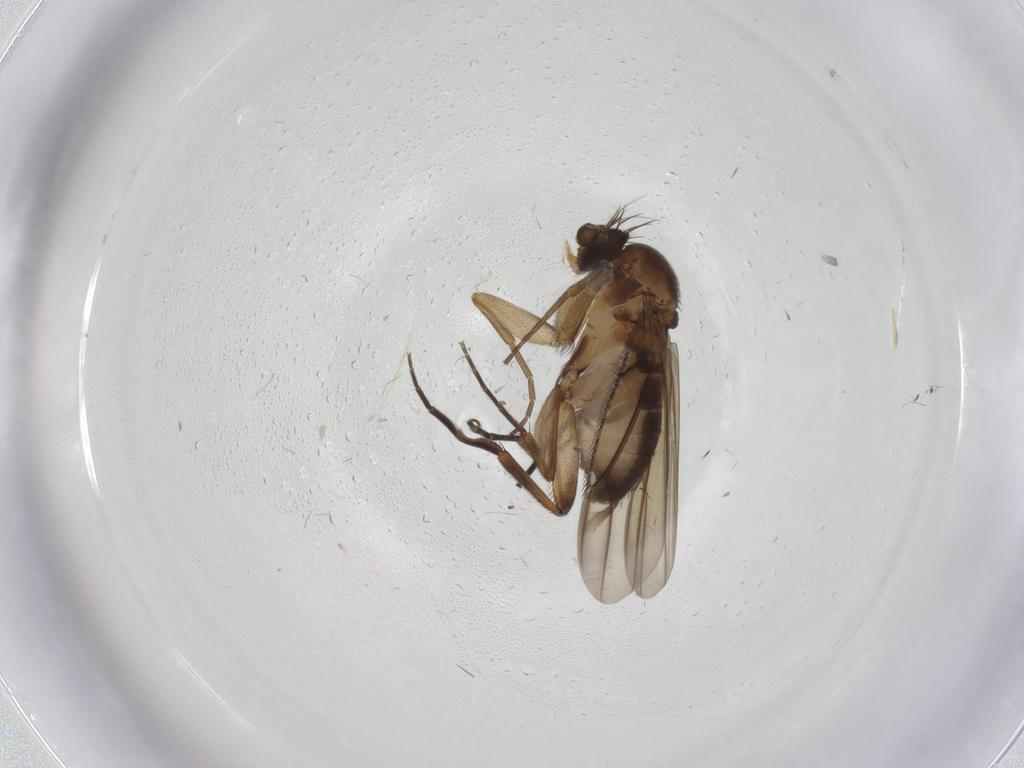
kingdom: Animalia
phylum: Arthropoda
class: Insecta
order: Diptera
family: Phoridae
